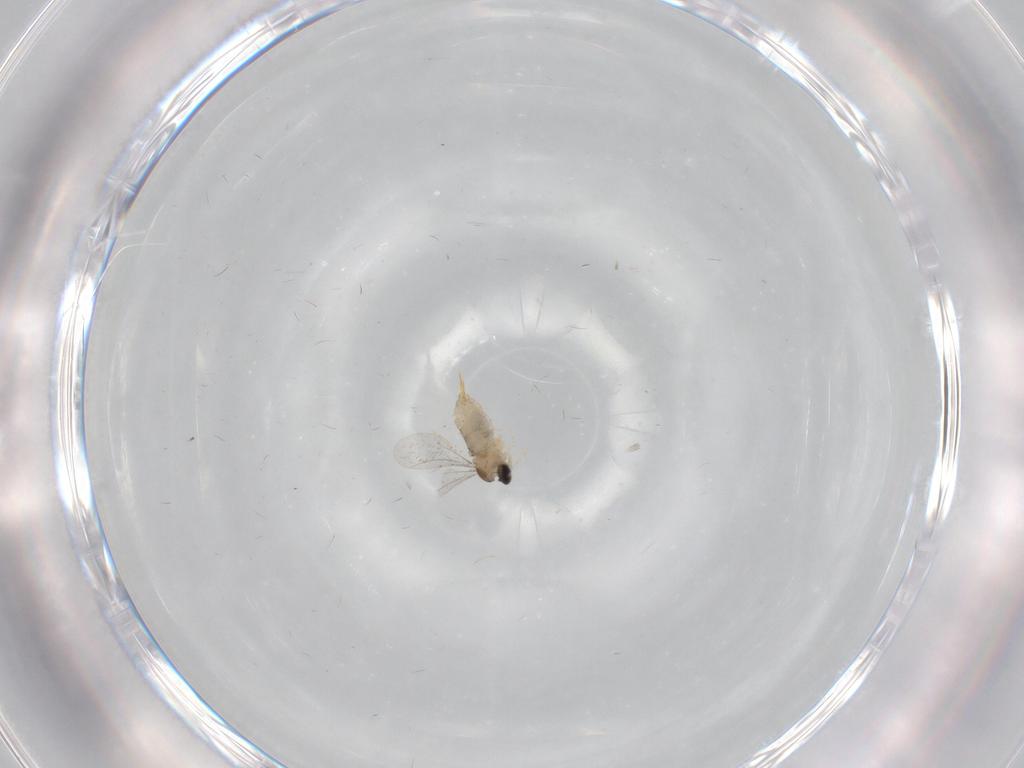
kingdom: Animalia
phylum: Arthropoda
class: Insecta
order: Diptera
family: Cecidomyiidae
